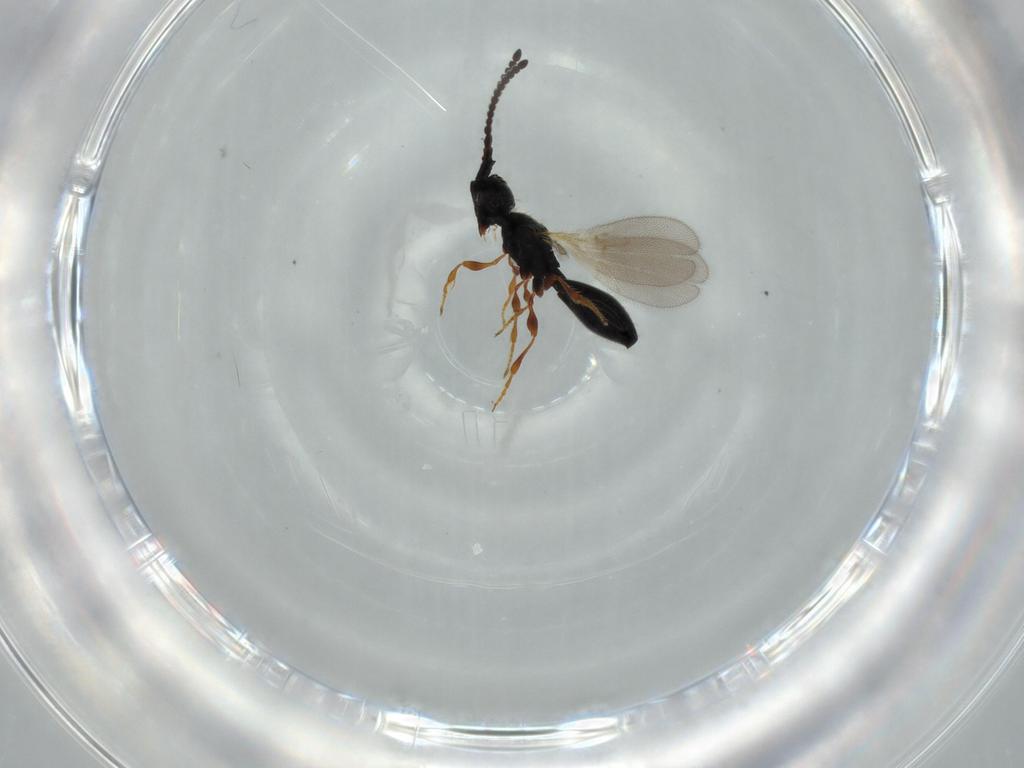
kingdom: Animalia
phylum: Arthropoda
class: Insecta
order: Hymenoptera
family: Diapriidae
